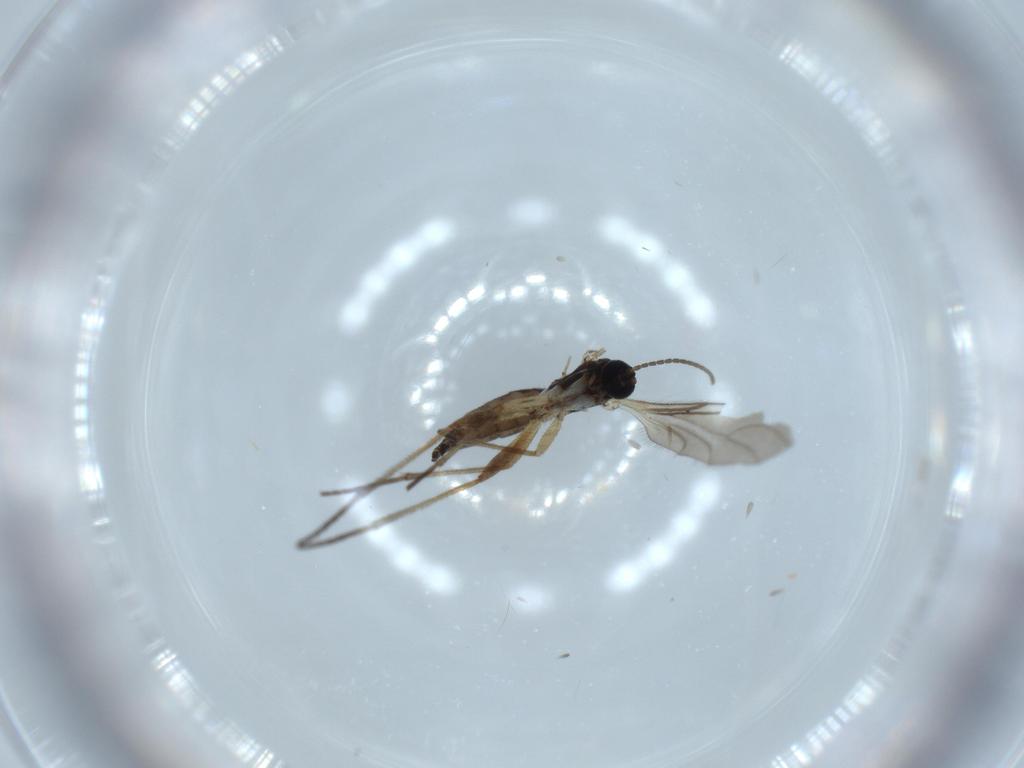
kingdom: Animalia
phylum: Arthropoda
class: Insecta
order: Diptera
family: Sciaridae
